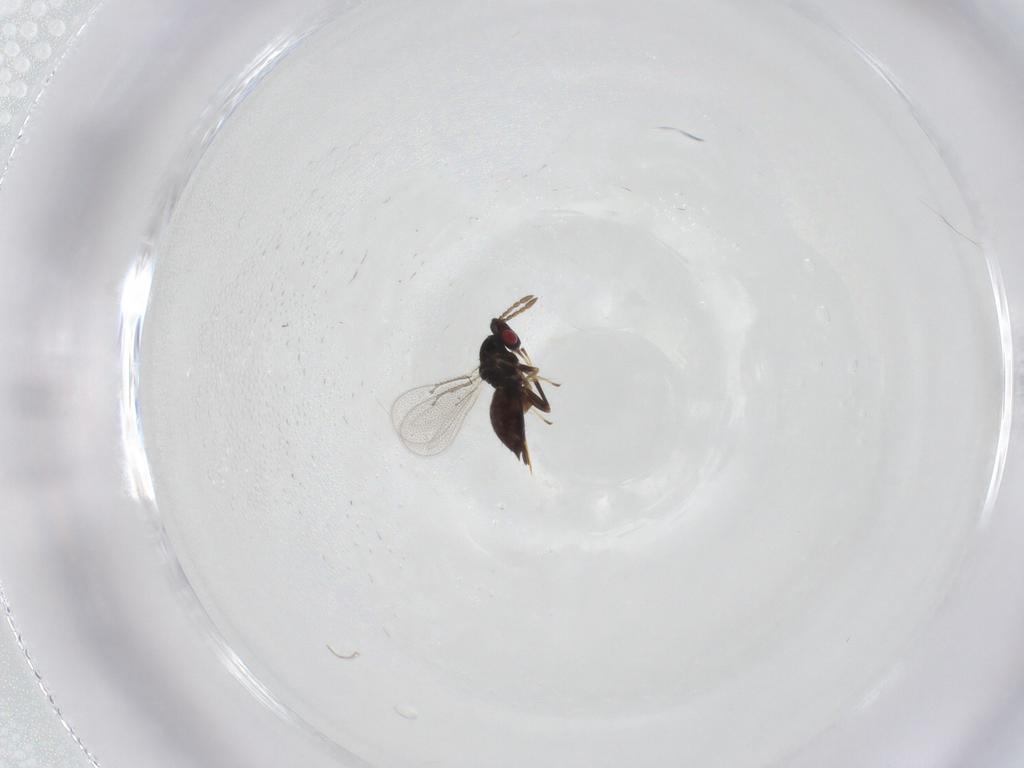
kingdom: Animalia
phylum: Arthropoda
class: Insecta
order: Hymenoptera
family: Eulophidae
